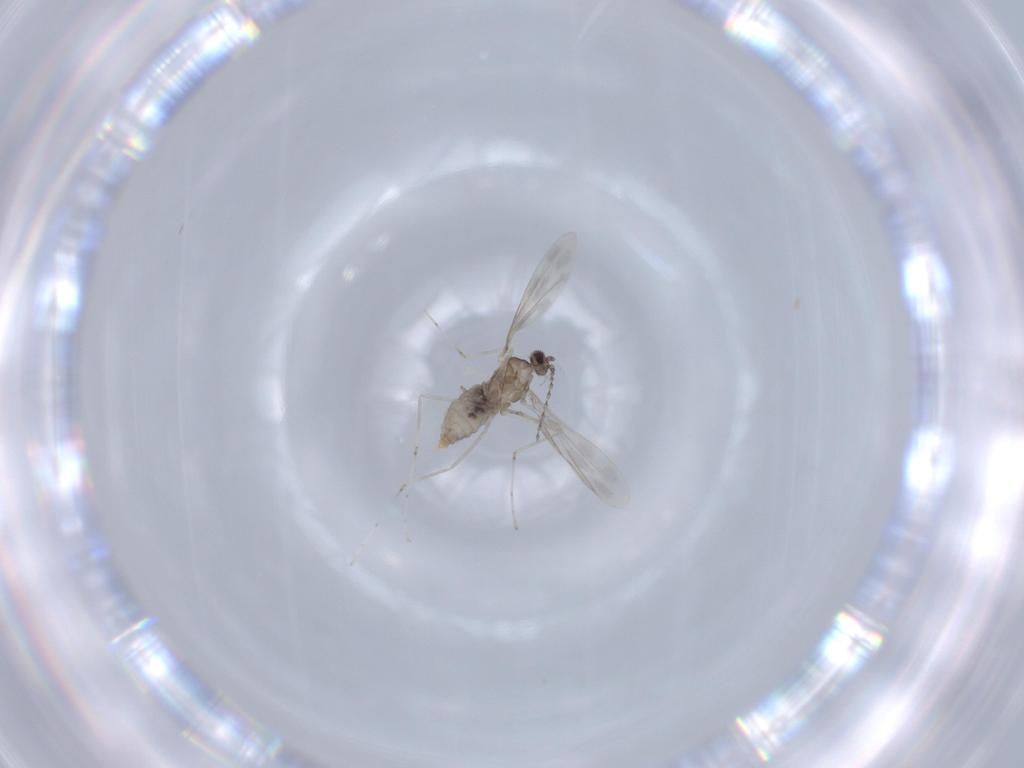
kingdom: Animalia
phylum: Arthropoda
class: Insecta
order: Diptera
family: Cecidomyiidae
